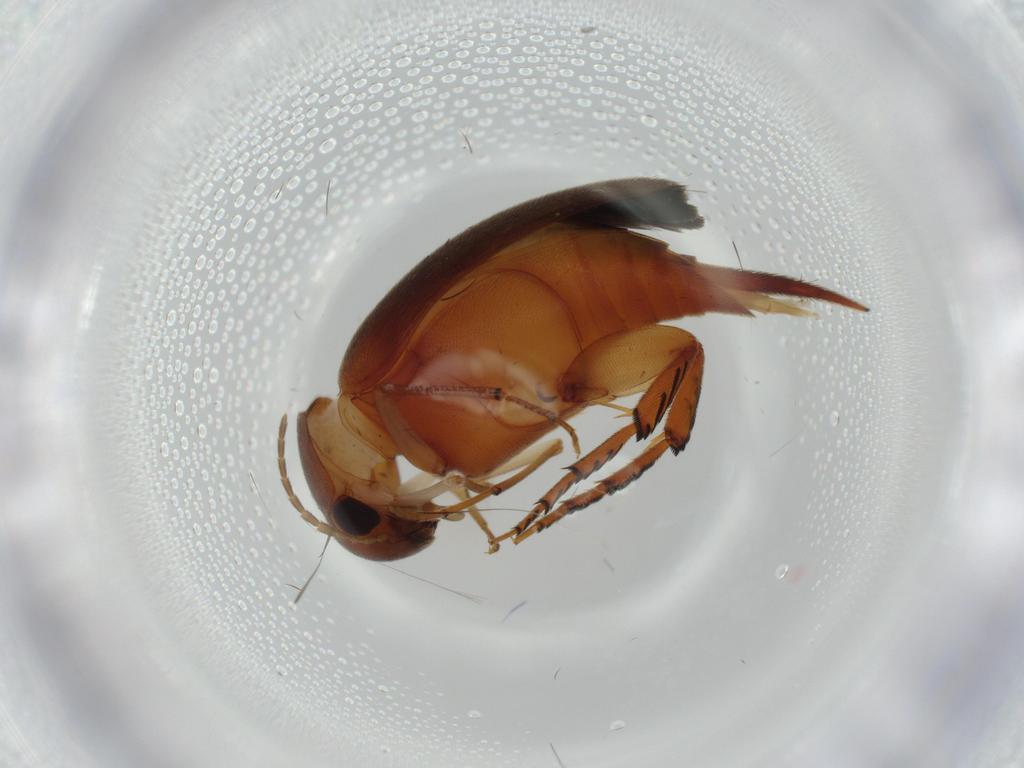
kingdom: Animalia
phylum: Arthropoda
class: Insecta
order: Coleoptera
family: Mordellidae
